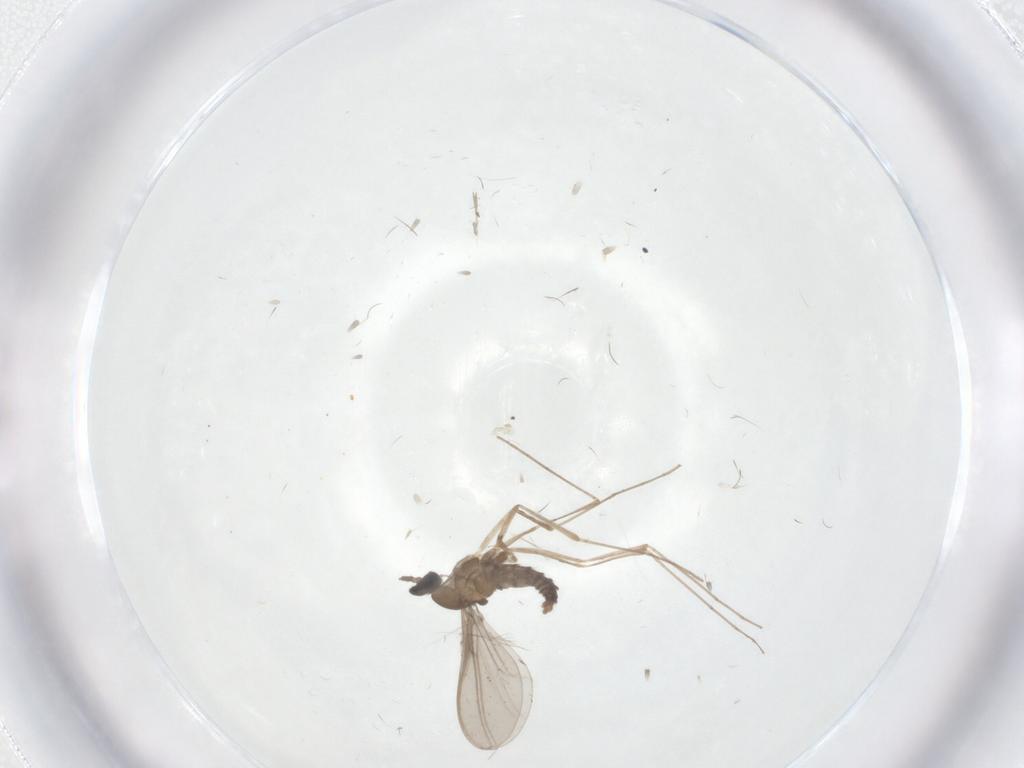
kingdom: Animalia
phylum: Arthropoda
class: Insecta
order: Diptera
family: Cecidomyiidae
